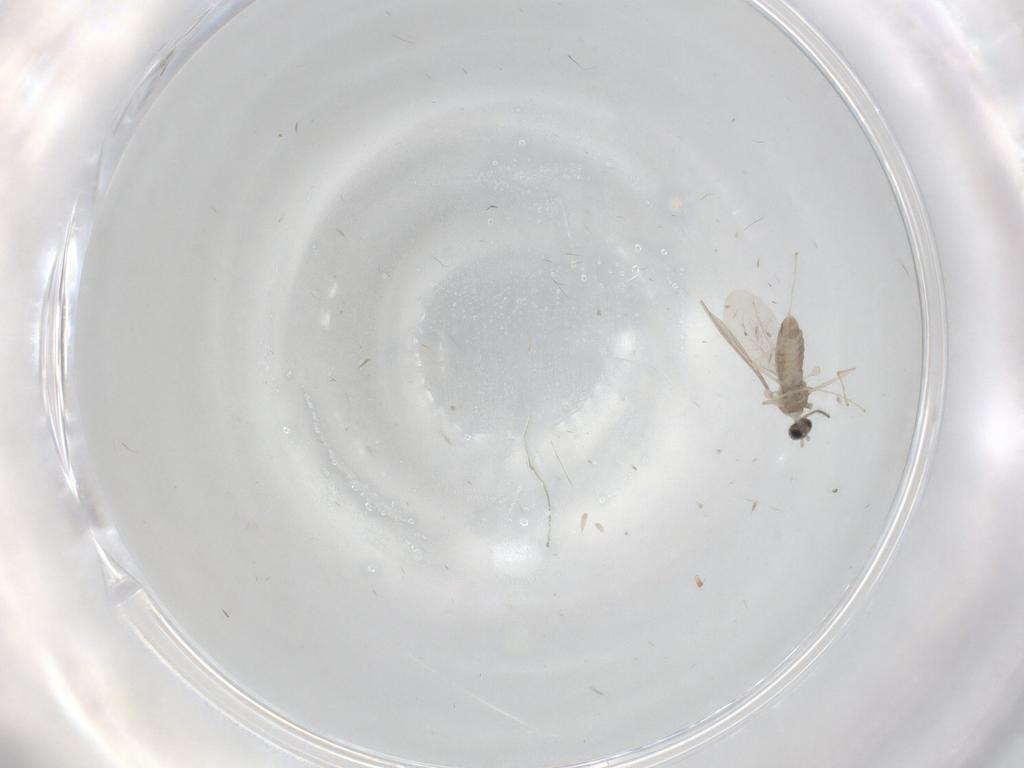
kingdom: Animalia
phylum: Arthropoda
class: Insecta
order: Diptera
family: Cecidomyiidae
